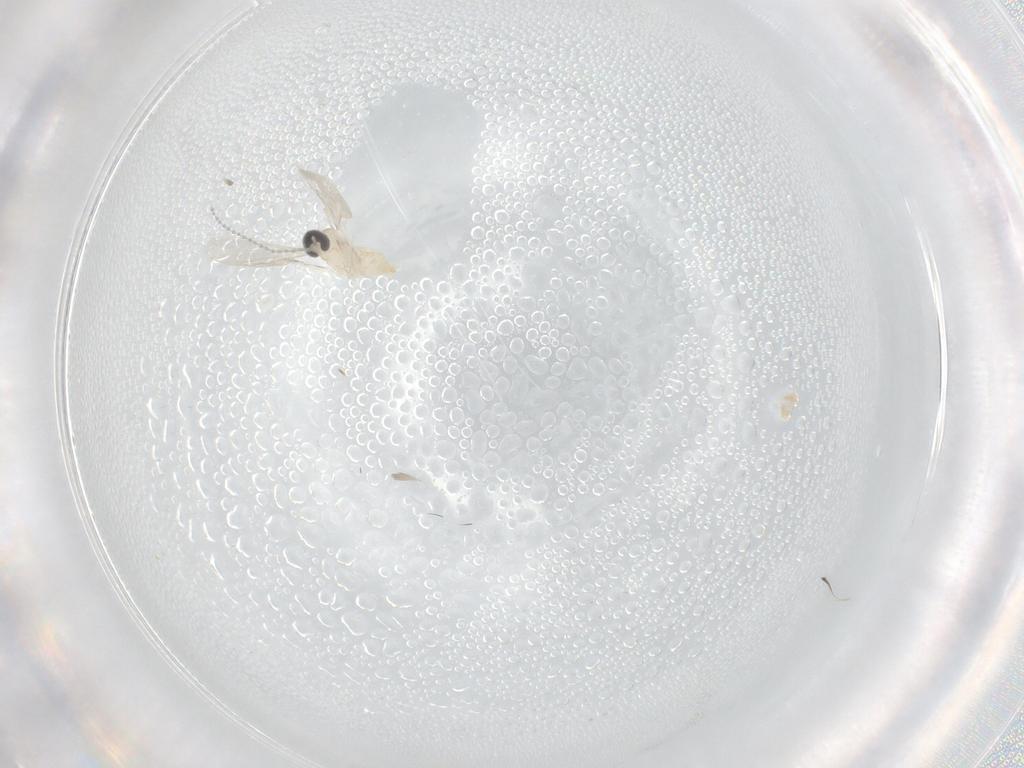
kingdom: Animalia
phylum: Arthropoda
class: Insecta
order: Diptera
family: Cecidomyiidae
